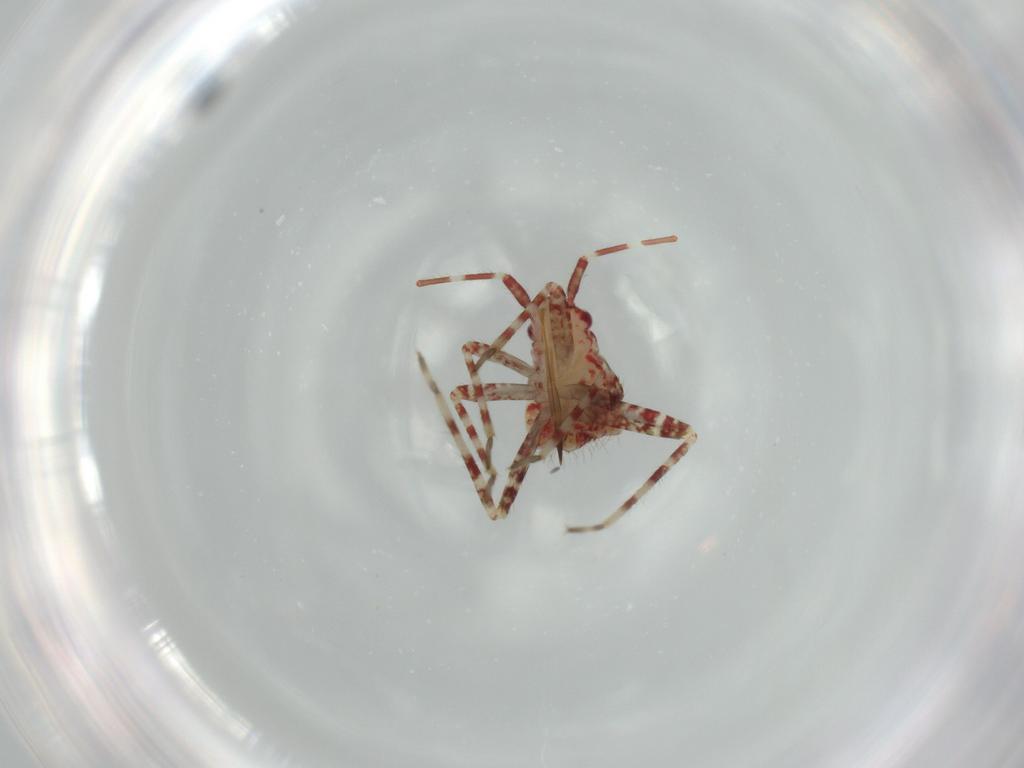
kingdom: Animalia
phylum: Arthropoda
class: Insecta
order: Hemiptera
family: Miridae
